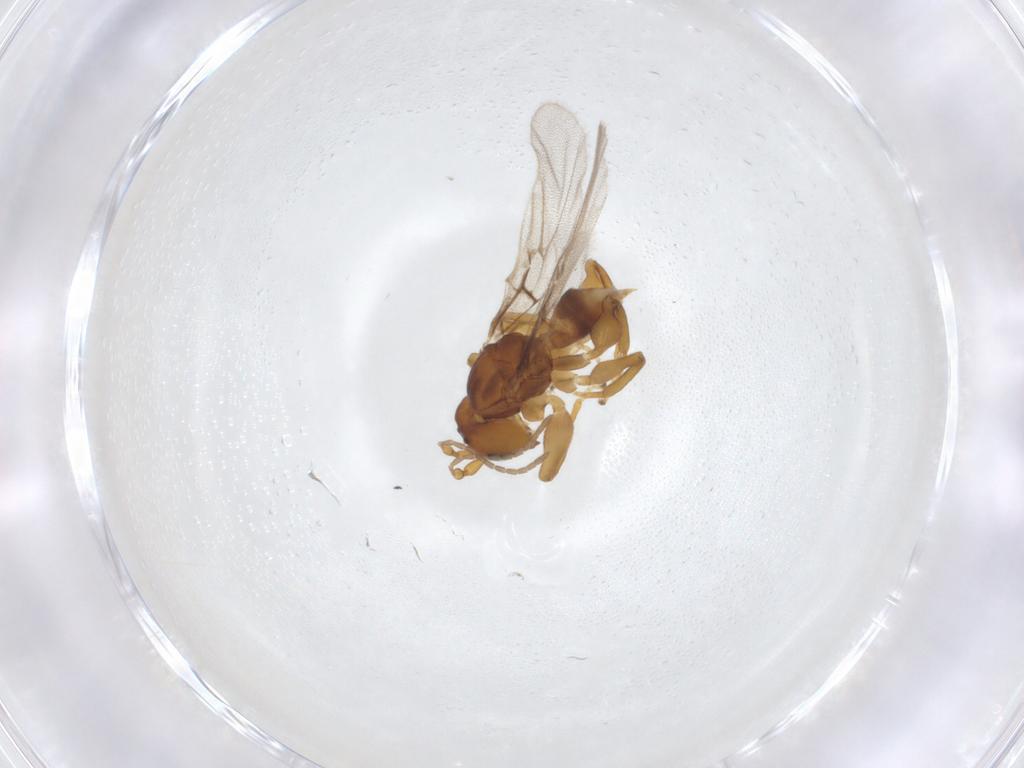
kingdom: Animalia
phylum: Arthropoda
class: Insecta
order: Hymenoptera
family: Cynipidae
